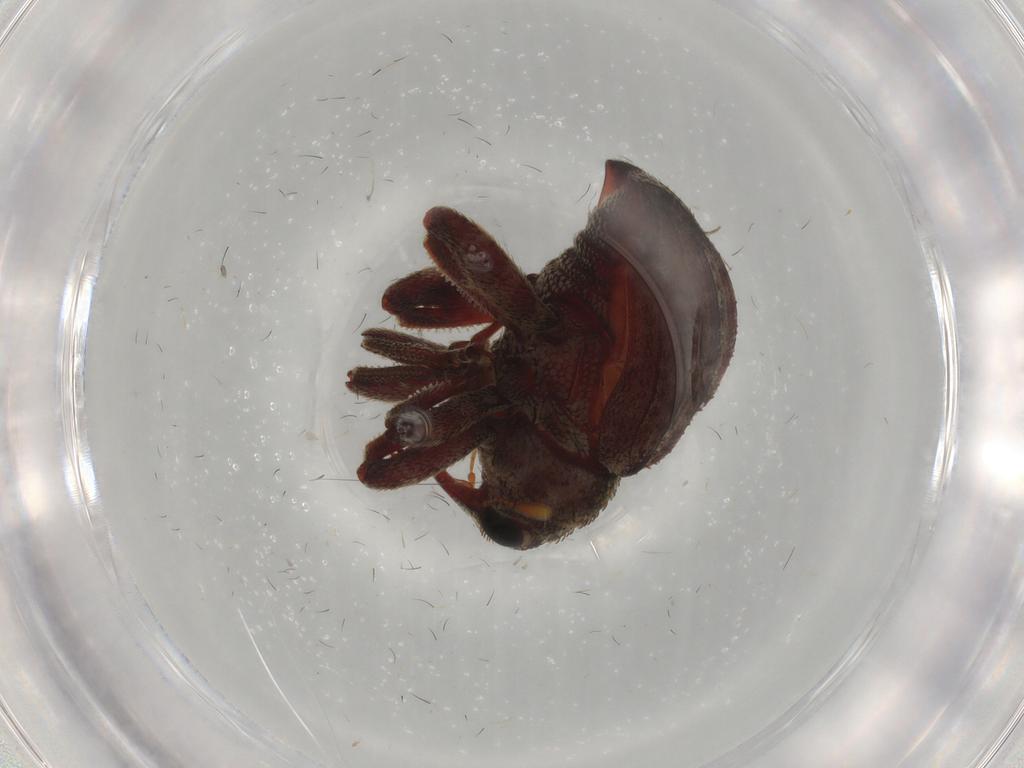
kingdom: Animalia
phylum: Arthropoda
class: Insecta
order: Coleoptera
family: Curculionidae
